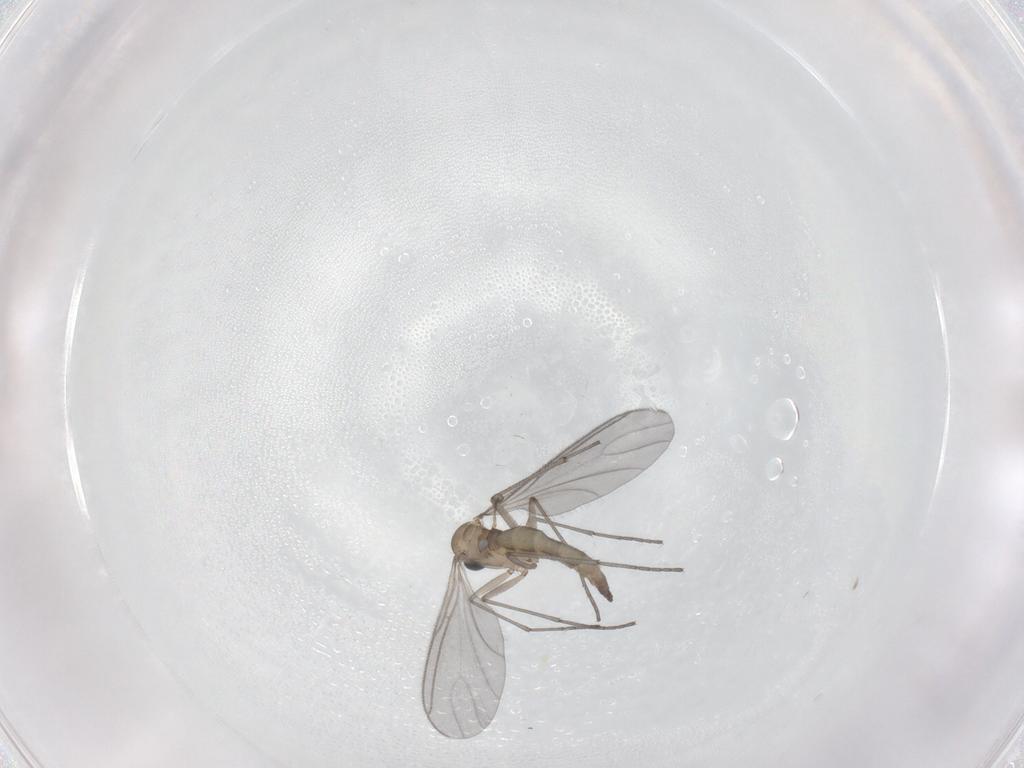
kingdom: Animalia
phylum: Arthropoda
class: Insecta
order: Diptera
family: Sciaridae
